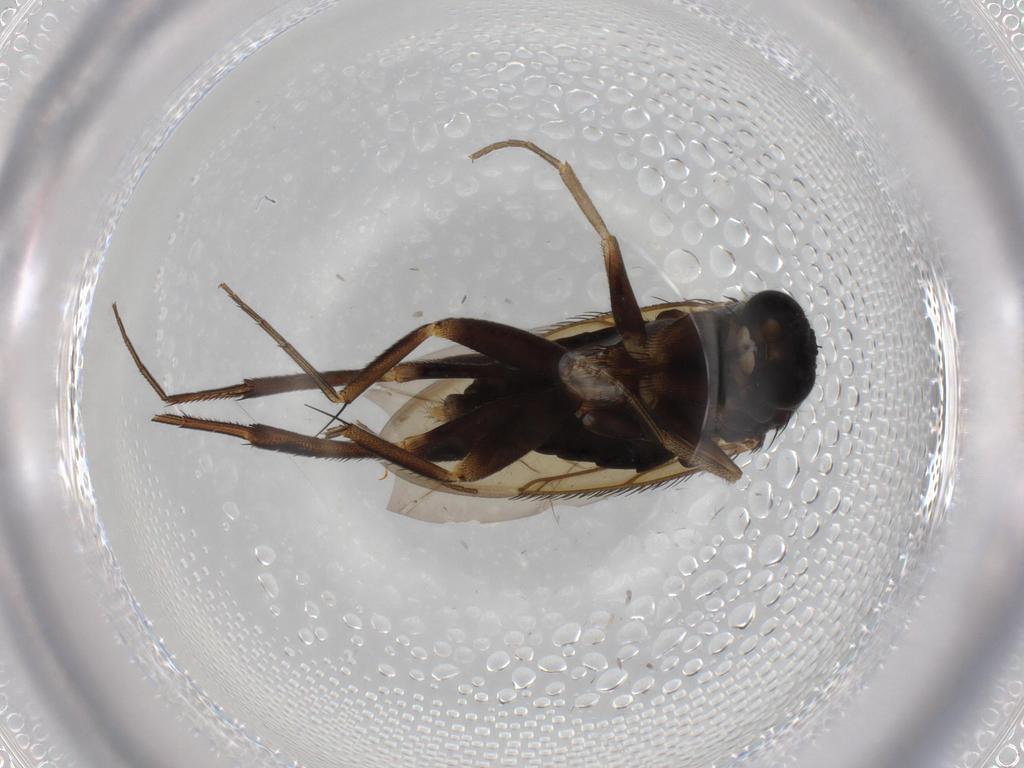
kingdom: Animalia
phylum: Arthropoda
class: Insecta
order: Diptera
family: Phoridae
